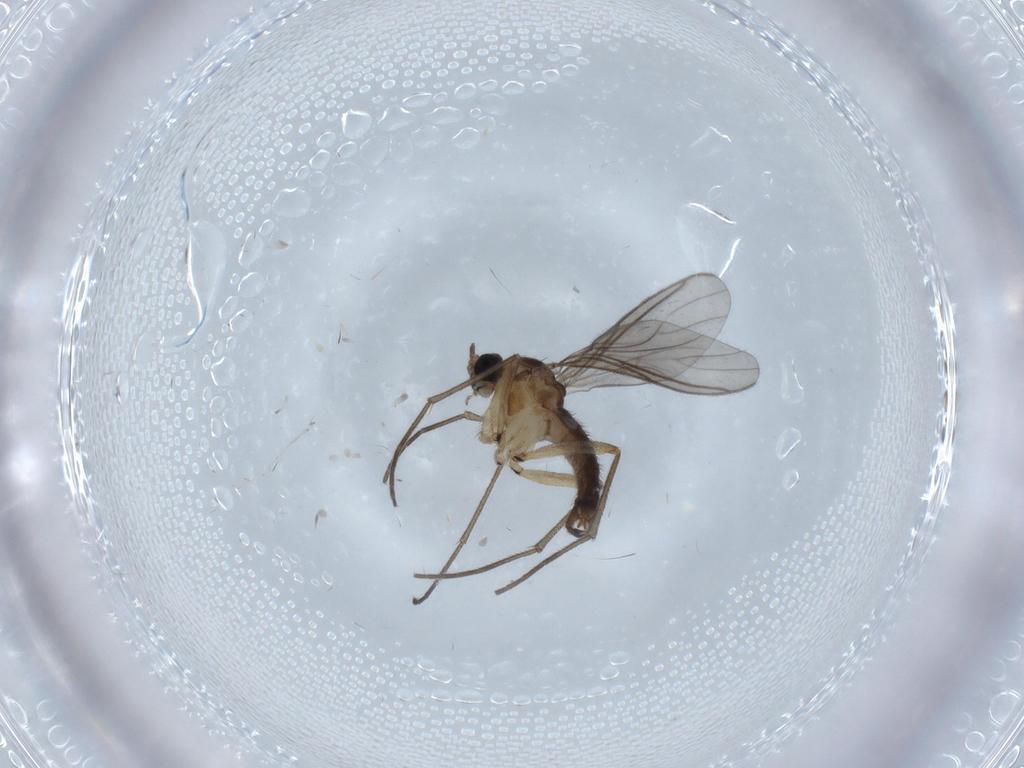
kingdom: Animalia
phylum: Arthropoda
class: Insecta
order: Diptera
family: Sciaridae
